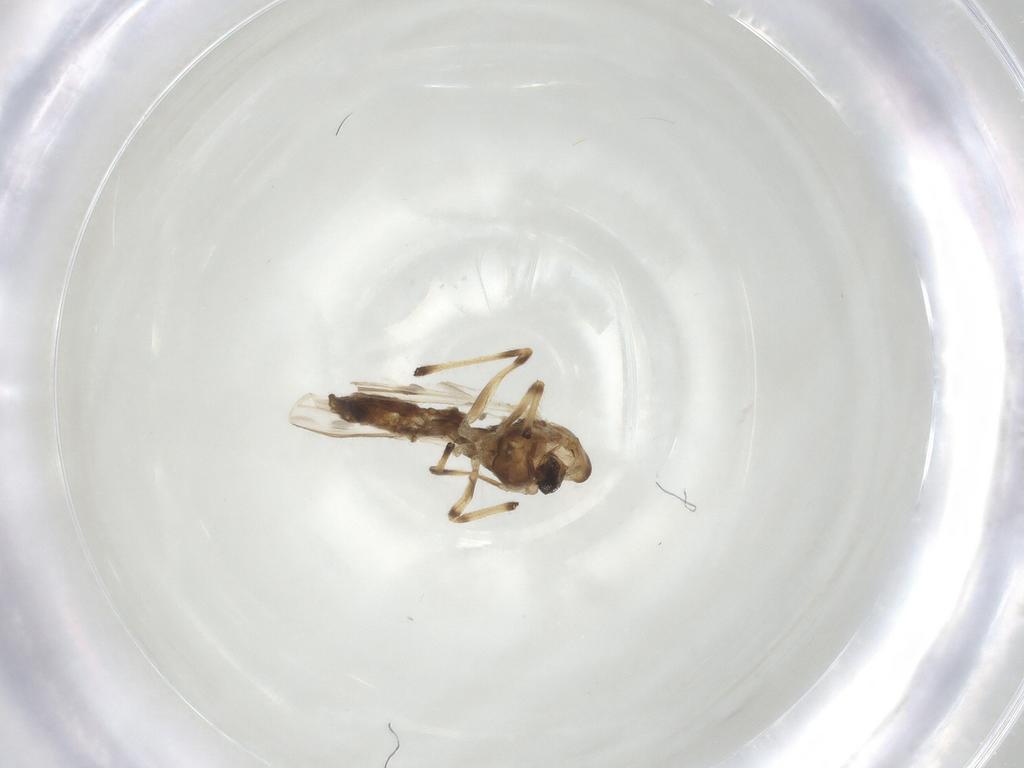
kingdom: Animalia
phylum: Arthropoda
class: Insecta
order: Diptera
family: Chironomidae
